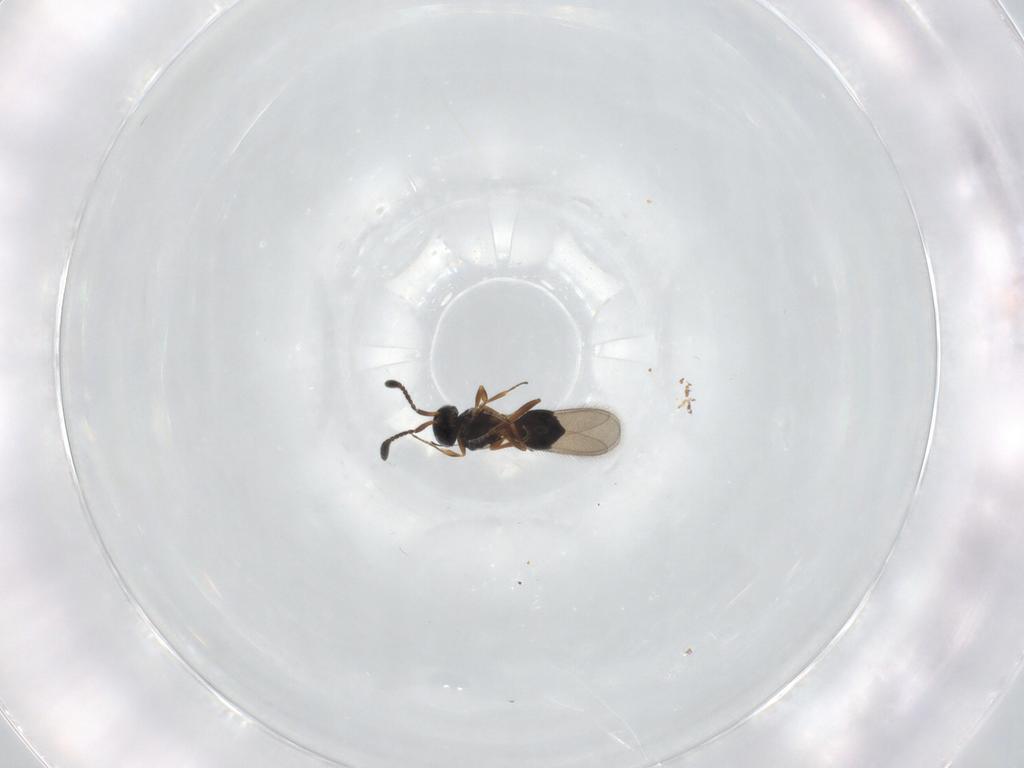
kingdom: Animalia
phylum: Arthropoda
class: Insecta
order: Hymenoptera
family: Scelionidae
